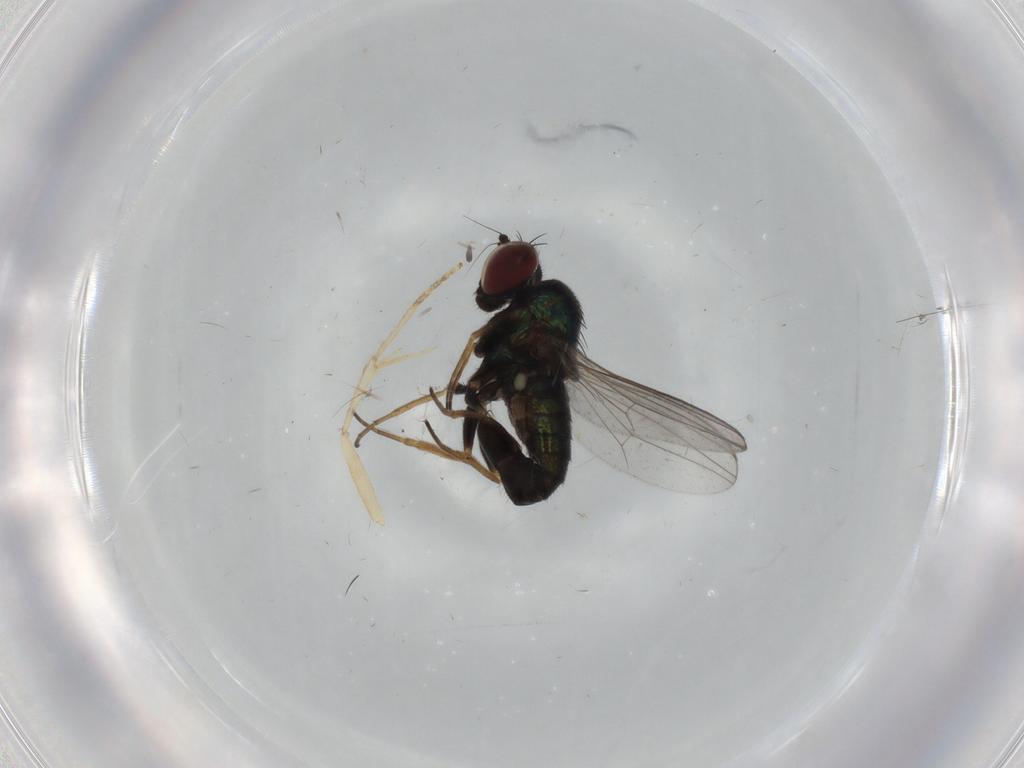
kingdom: Animalia
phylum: Arthropoda
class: Insecta
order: Diptera
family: Dolichopodidae
